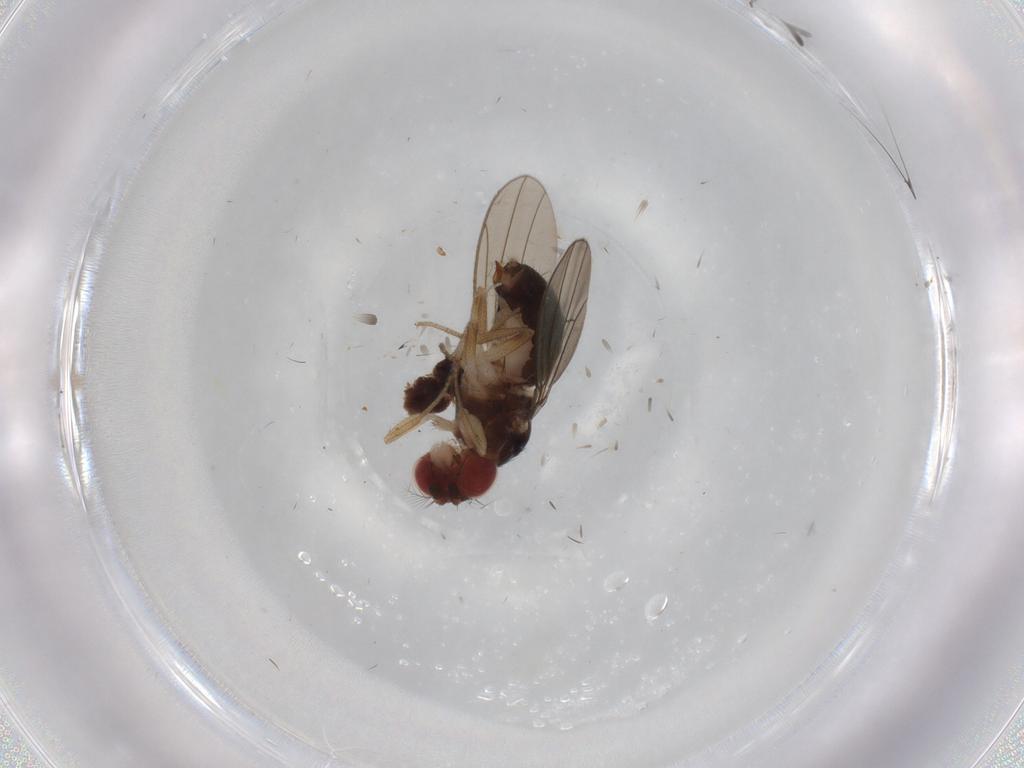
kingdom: Animalia
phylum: Arthropoda
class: Insecta
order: Diptera
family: Drosophilidae
